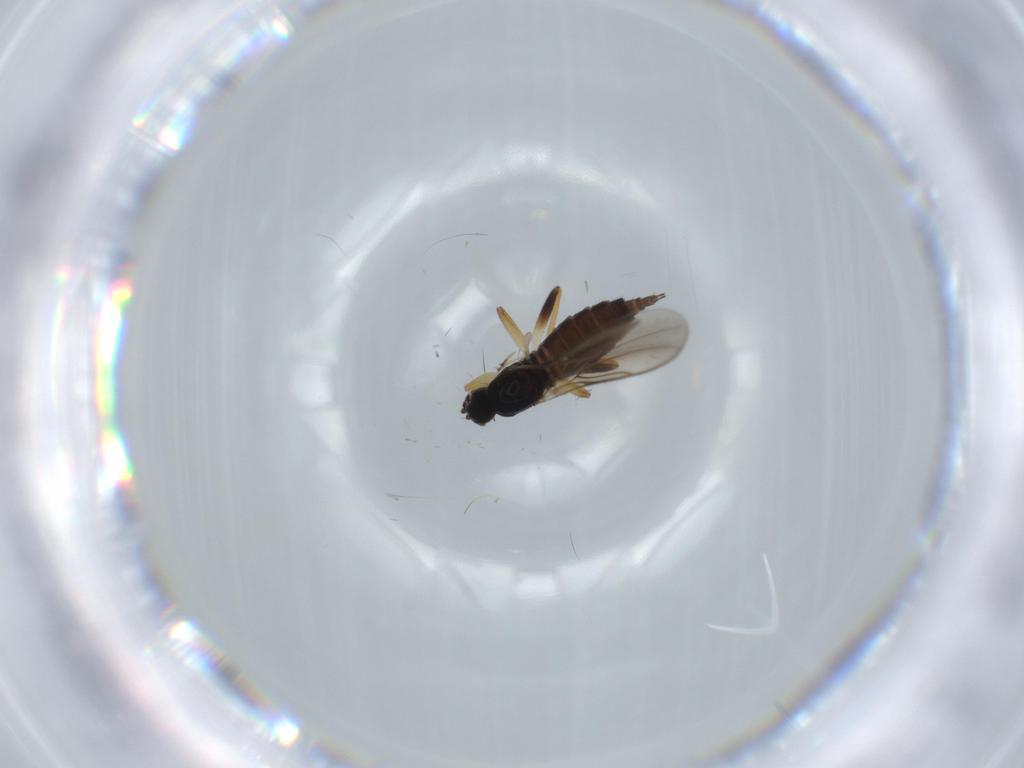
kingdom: Animalia
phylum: Arthropoda
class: Insecta
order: Diptera
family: Hybotidae
